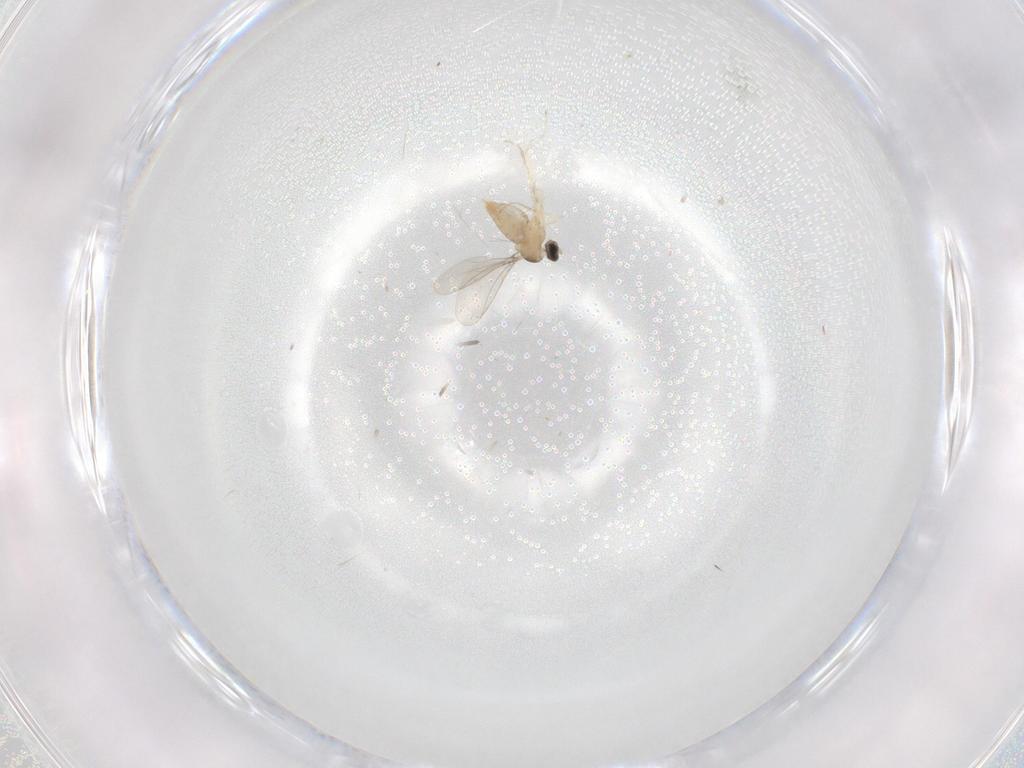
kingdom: Animalia
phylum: Arthropoda
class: Insecta
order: Diptera
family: Cecidomyiidae
